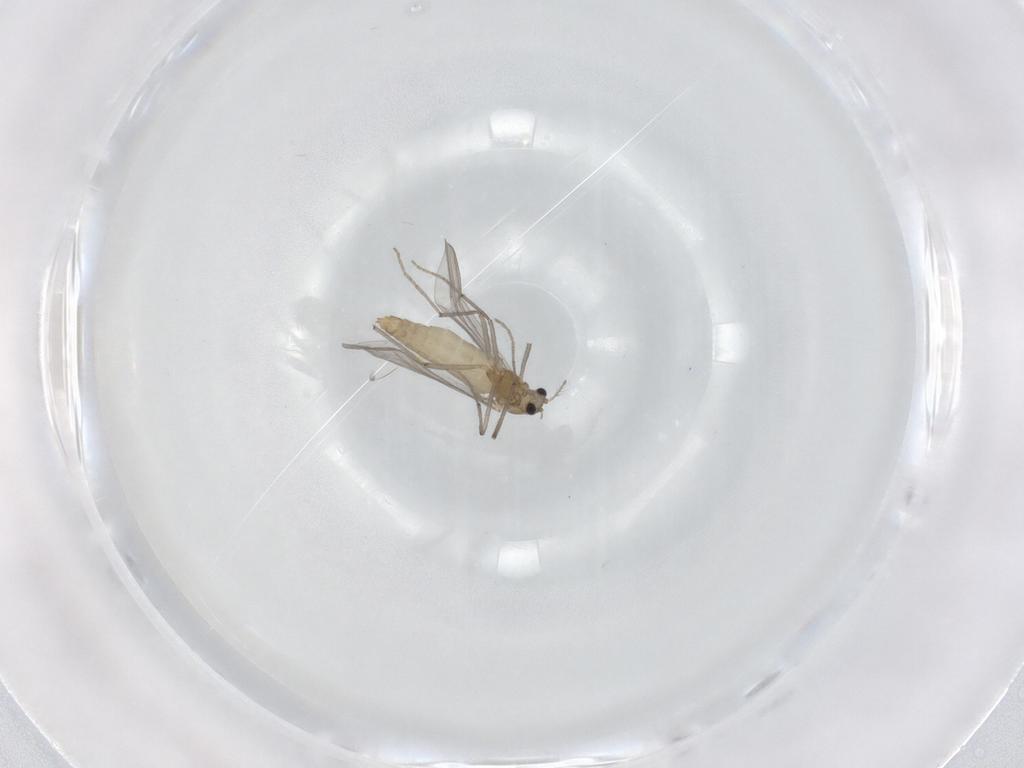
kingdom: Animalia
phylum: Arthropoda
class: Insecta
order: Diptera
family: Chironomidae
